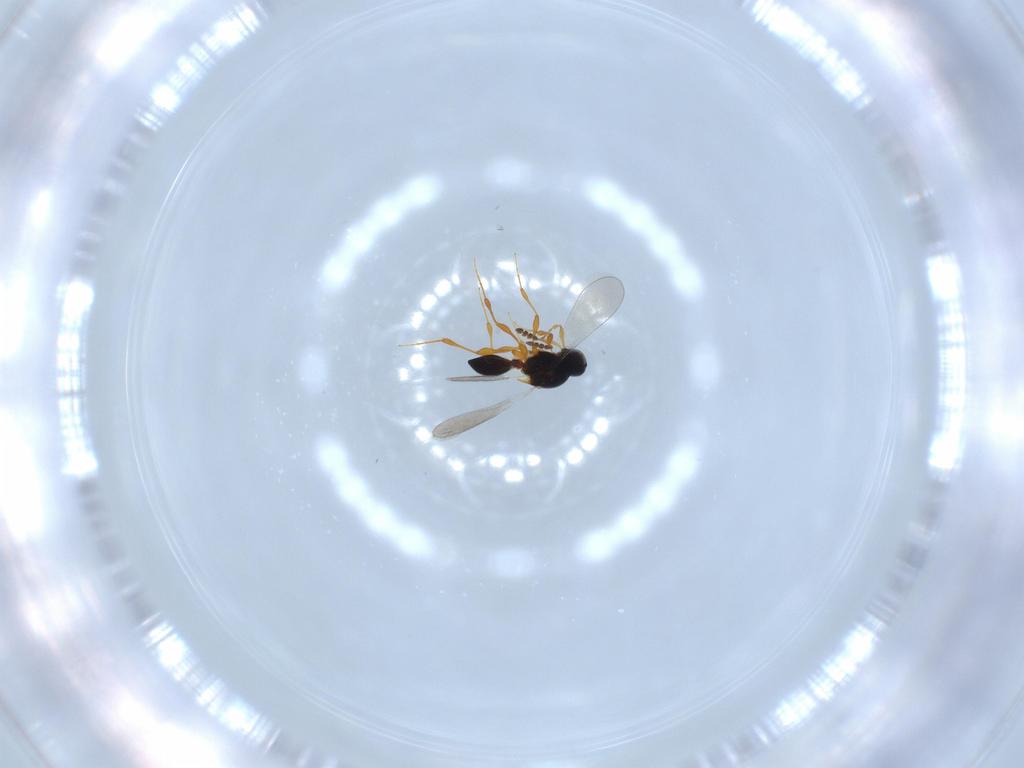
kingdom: Animalia
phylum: Arthropoda
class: Insecta
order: Hymenoptera
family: Platygastridae
